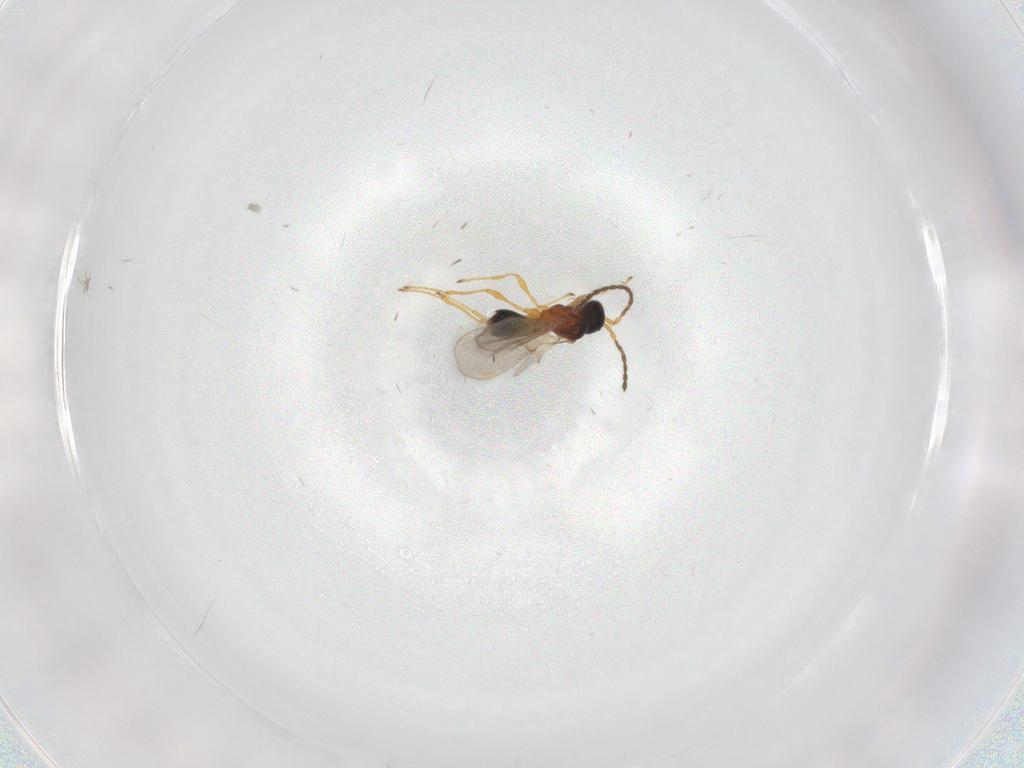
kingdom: Animalia
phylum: Arthropoda
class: Insecta
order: Hymenoptera
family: Diapriidae
